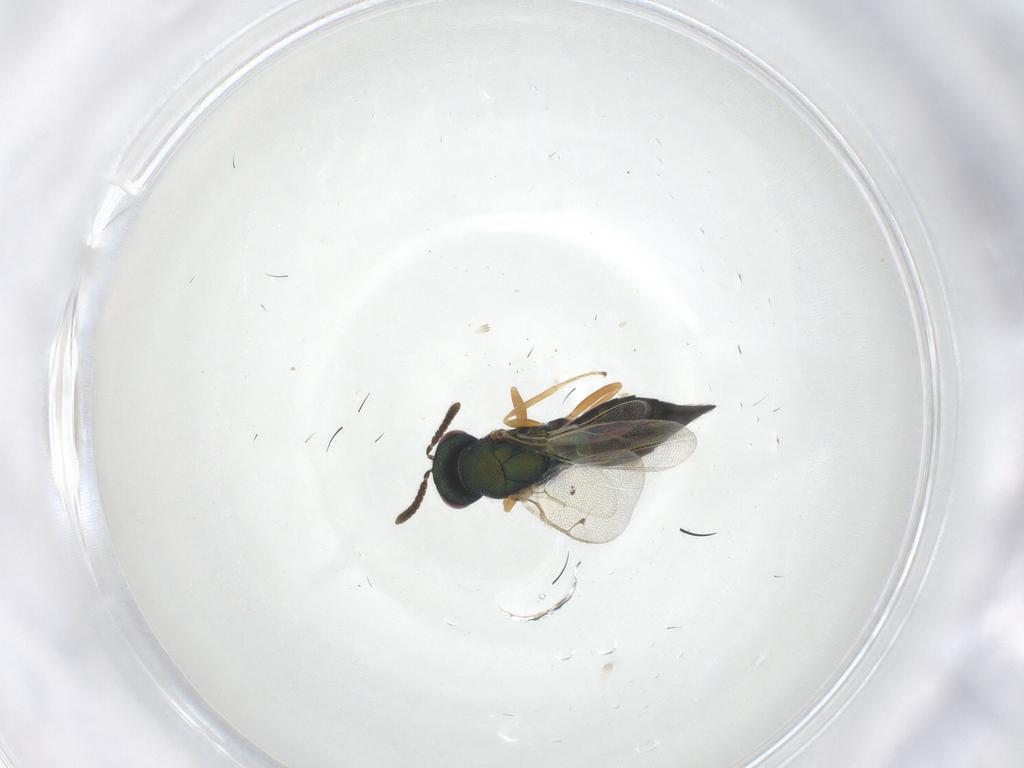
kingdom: Animalia
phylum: Arthropoda
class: Insecta
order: Hymenoptera
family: Pteromalidae
